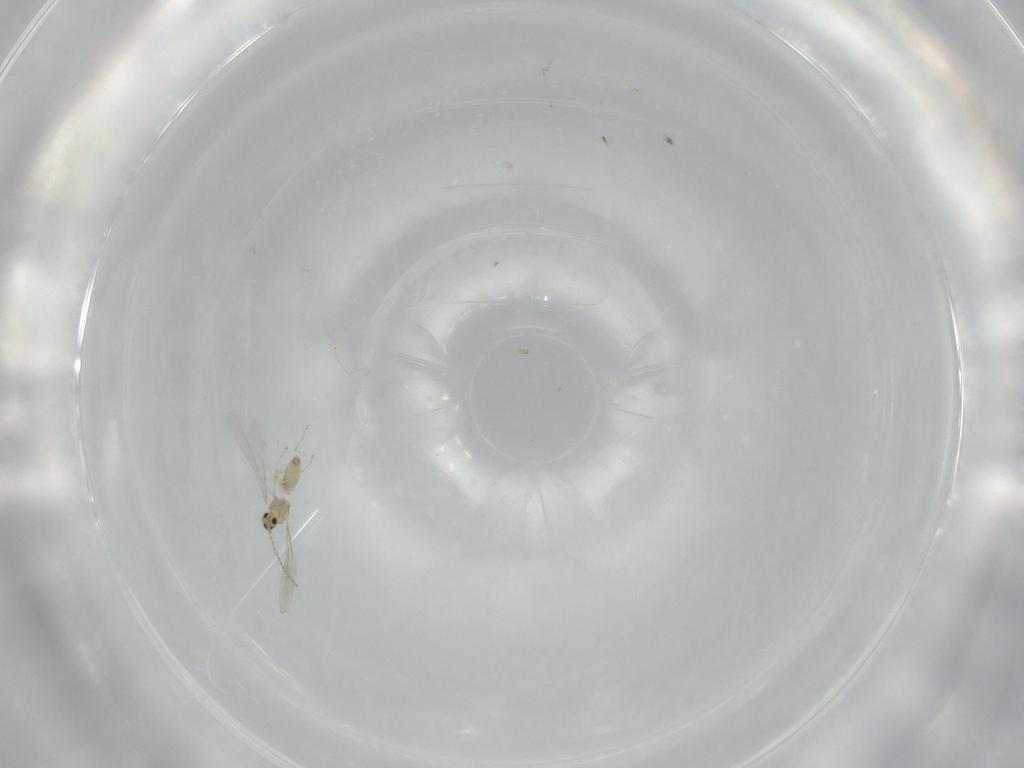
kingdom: Animalia
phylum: Arthropoda
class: Insecta
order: Diptera
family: Cecidomyiidae
